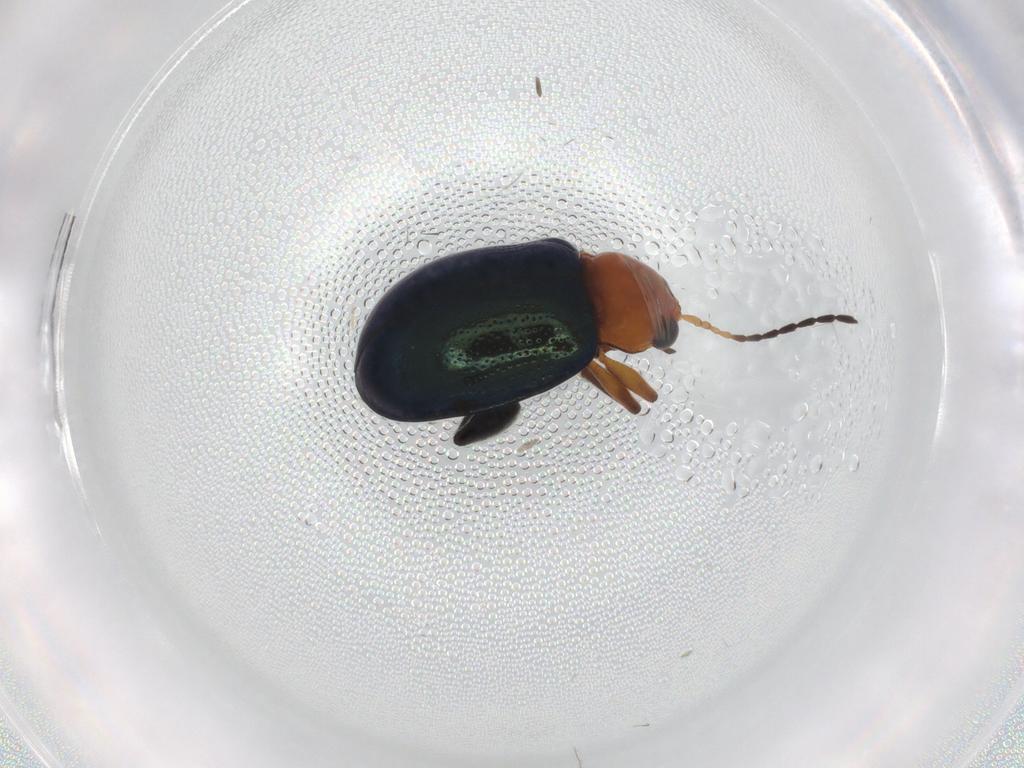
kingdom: Animalia
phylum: Arthropoda
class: Insecta
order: Coleoptera
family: Chrysomelidae
